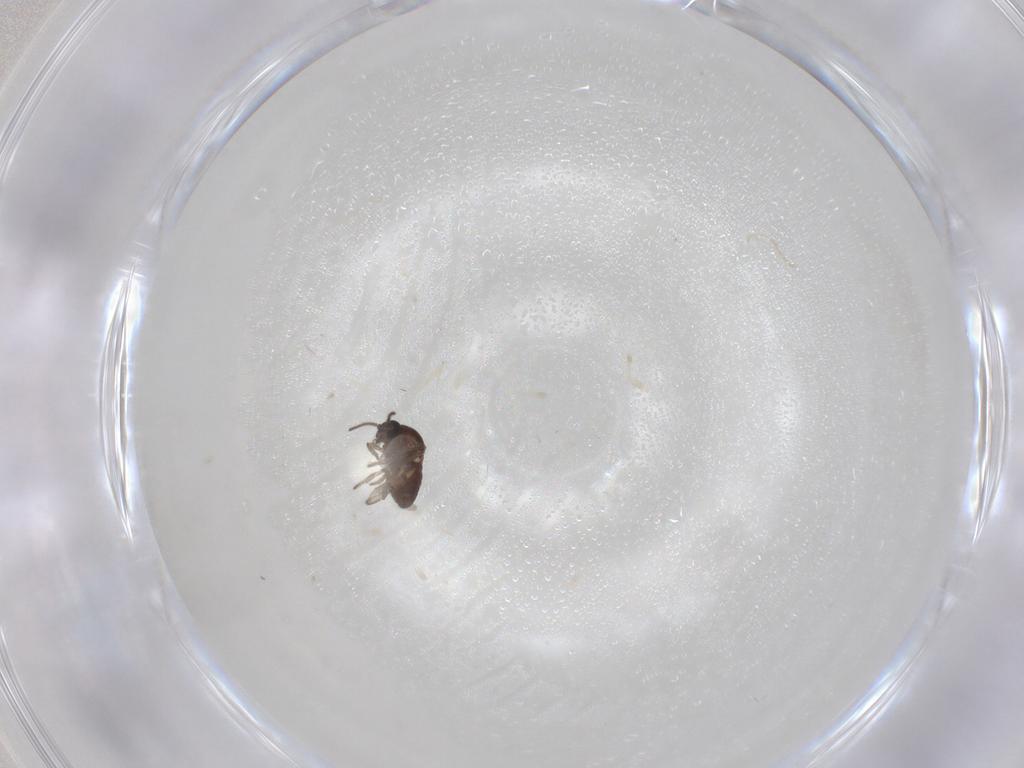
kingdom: Animalia
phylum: Arthropoda
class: Insecta
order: Diptera
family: Ceratopogonidae
